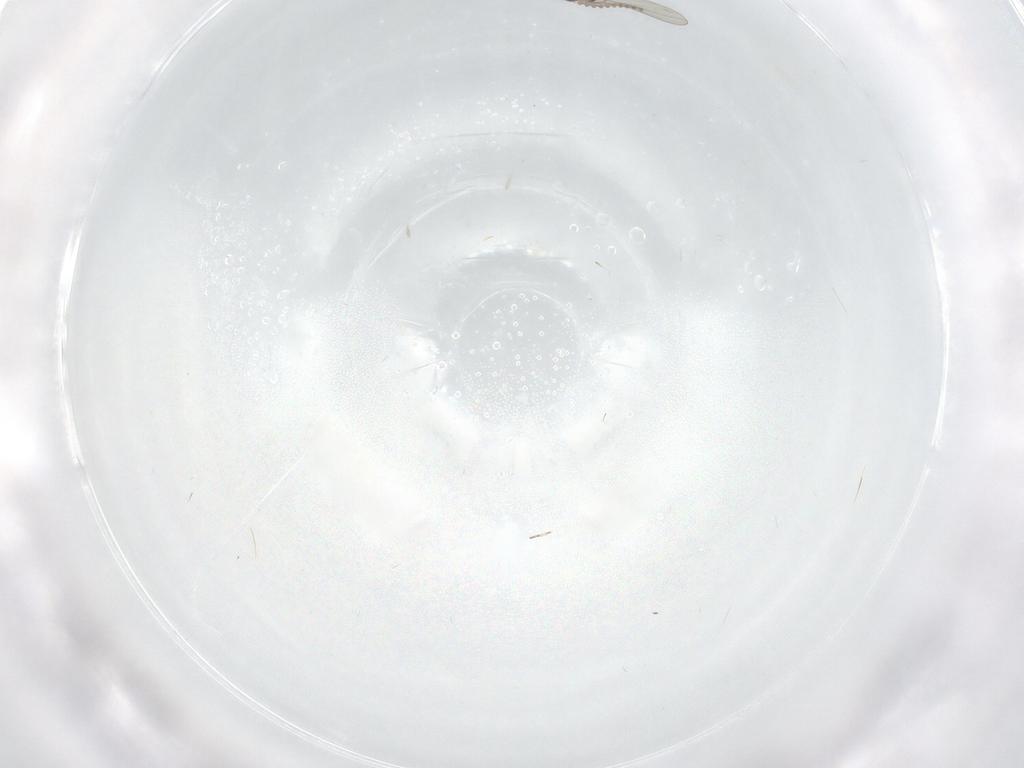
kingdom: Animalia
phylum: Arthropoda
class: Insecta
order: Diptera
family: Cecidomyiidae
